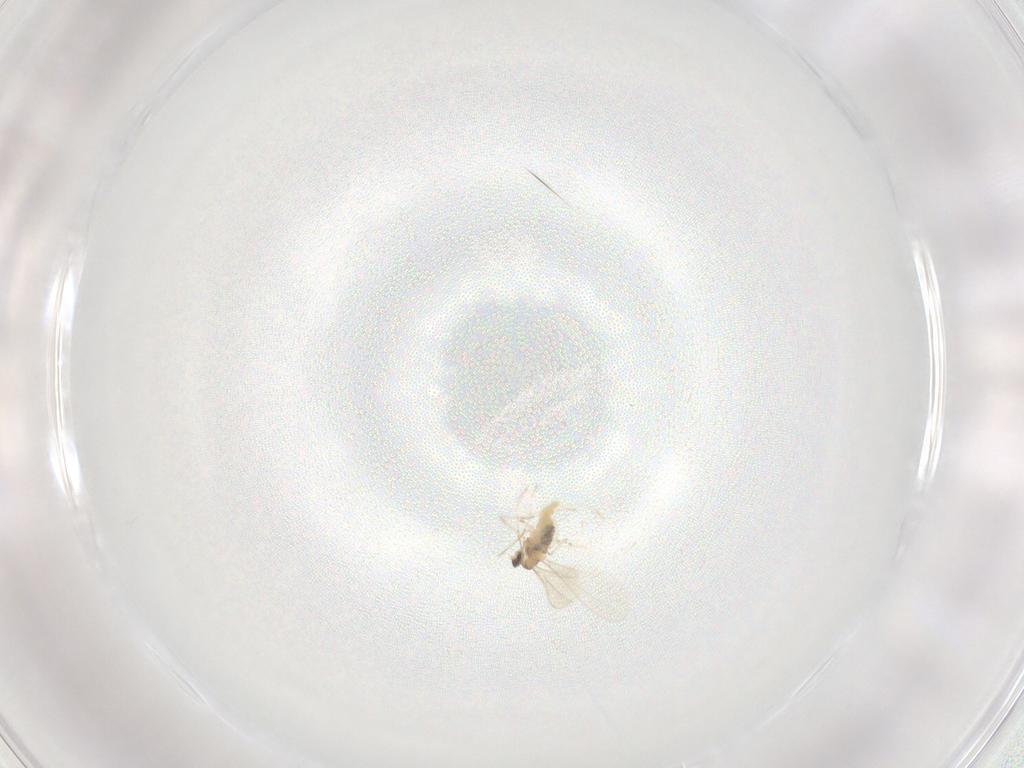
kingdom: Animalia
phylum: Arthropoda
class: Insecta
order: Diptera
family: Cecidomyiidae
